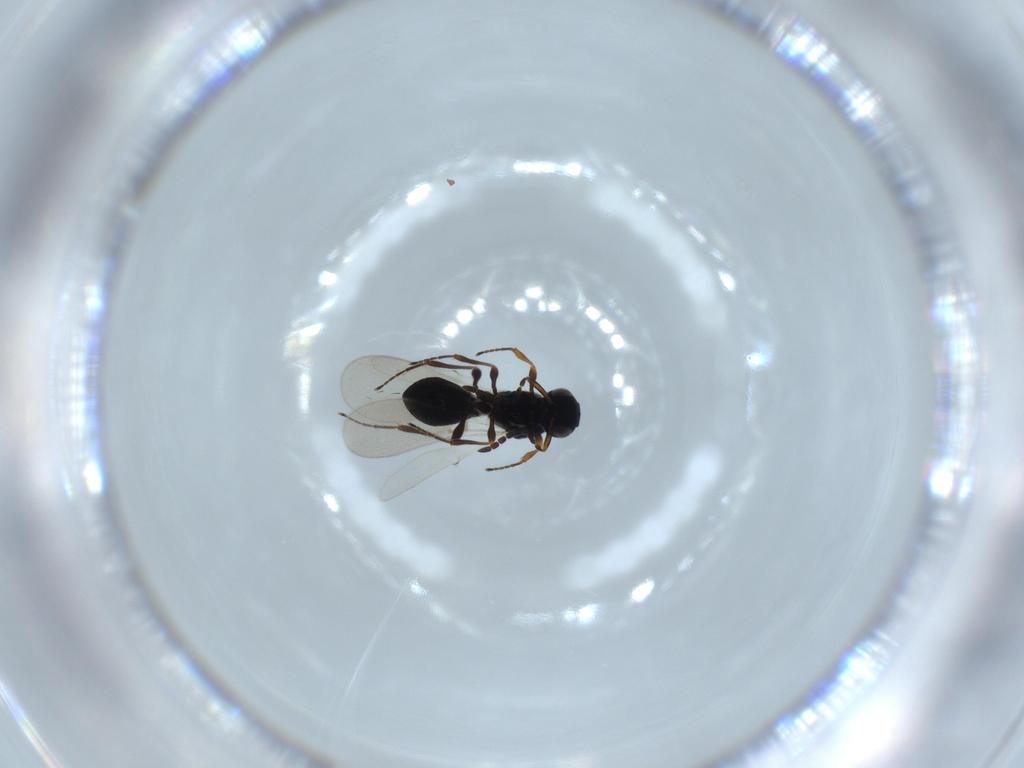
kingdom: Animalia
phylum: Arthropoda
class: Insecta
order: Hymenoptera
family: Platygastridae
